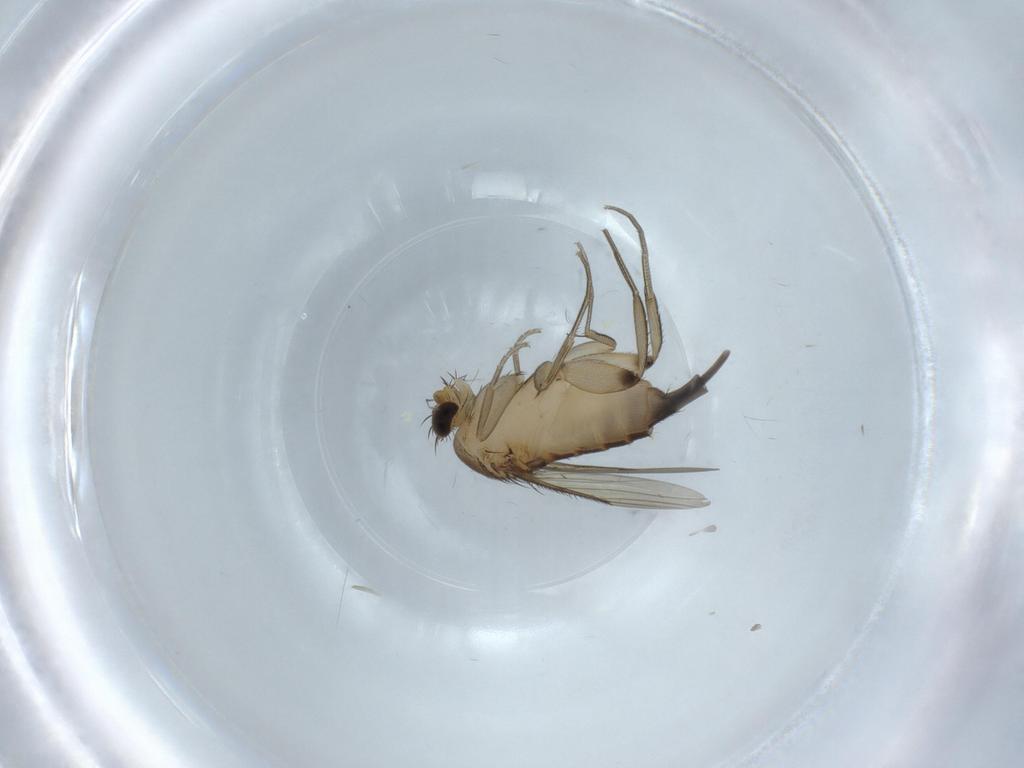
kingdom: Animalia
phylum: Arthropoda
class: Insecta
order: Diptera
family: Phoridae
